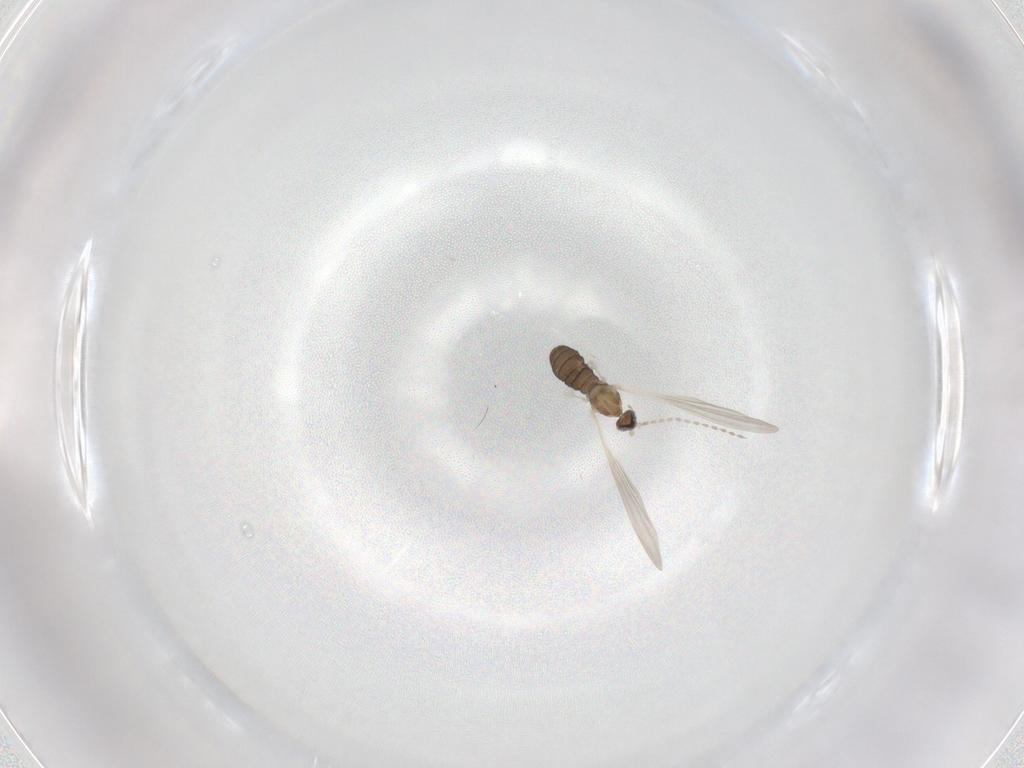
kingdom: Animalia
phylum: Arthropoda
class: Insecta
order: Diptera
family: Cecidomyiidae
